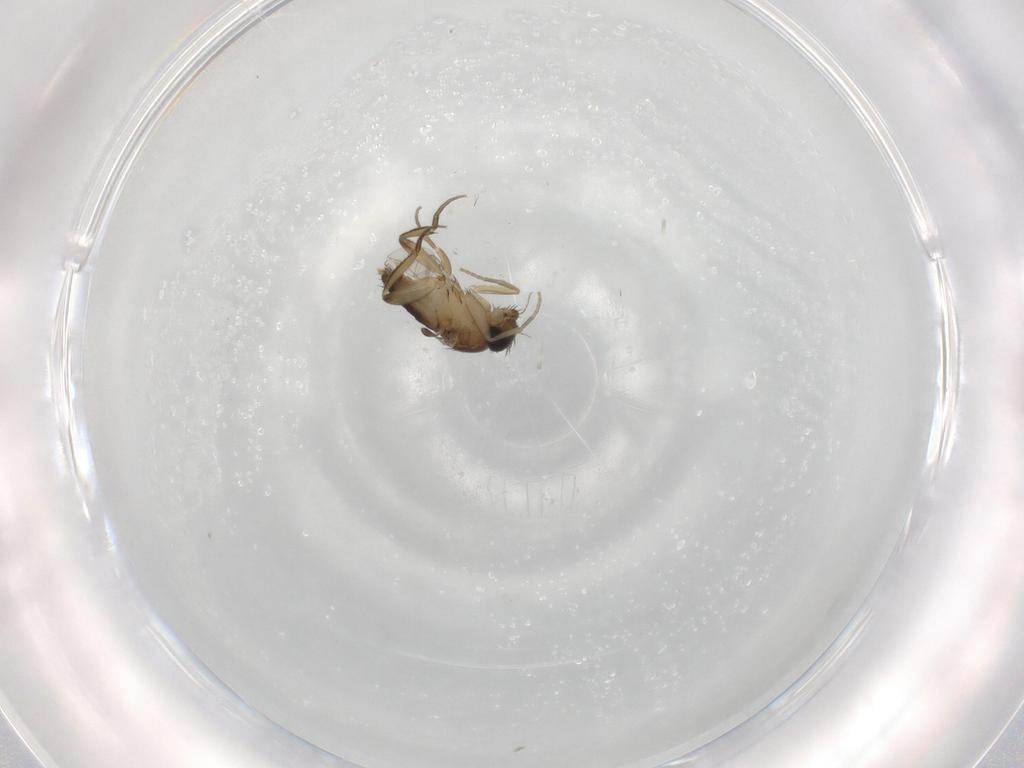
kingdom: Animalia
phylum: Arthropoda
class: Insecta
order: Diptera
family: Phoridae
